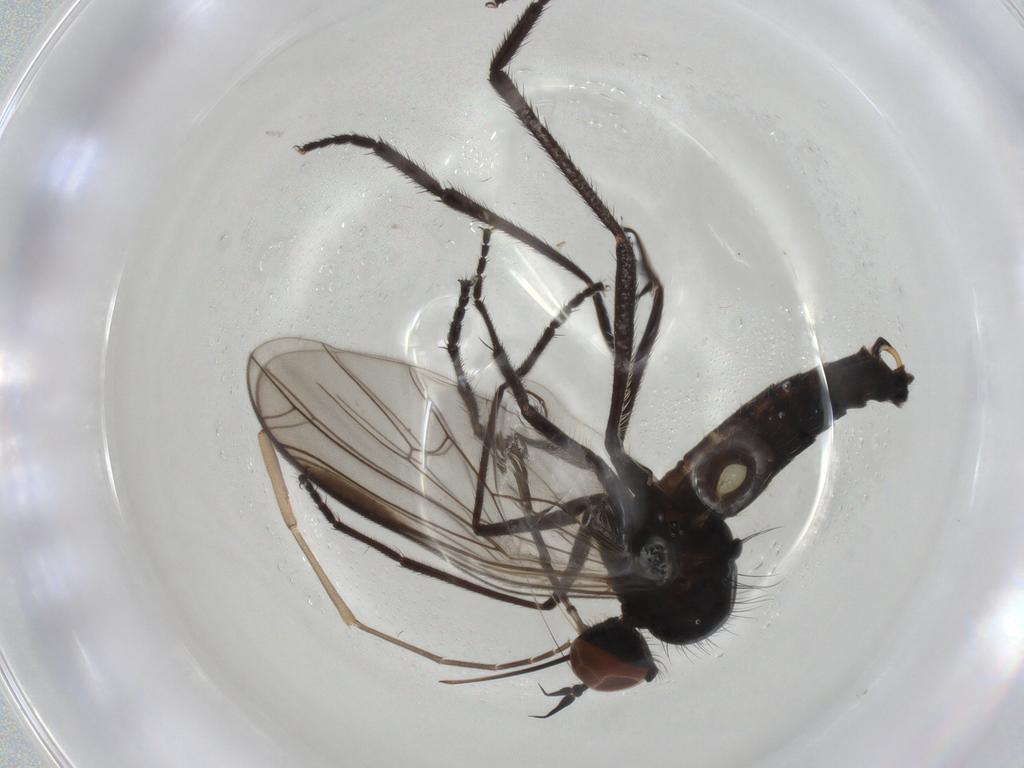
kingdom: Animalia
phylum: Arthropoda
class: Insecta
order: Diptera
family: Empididae
